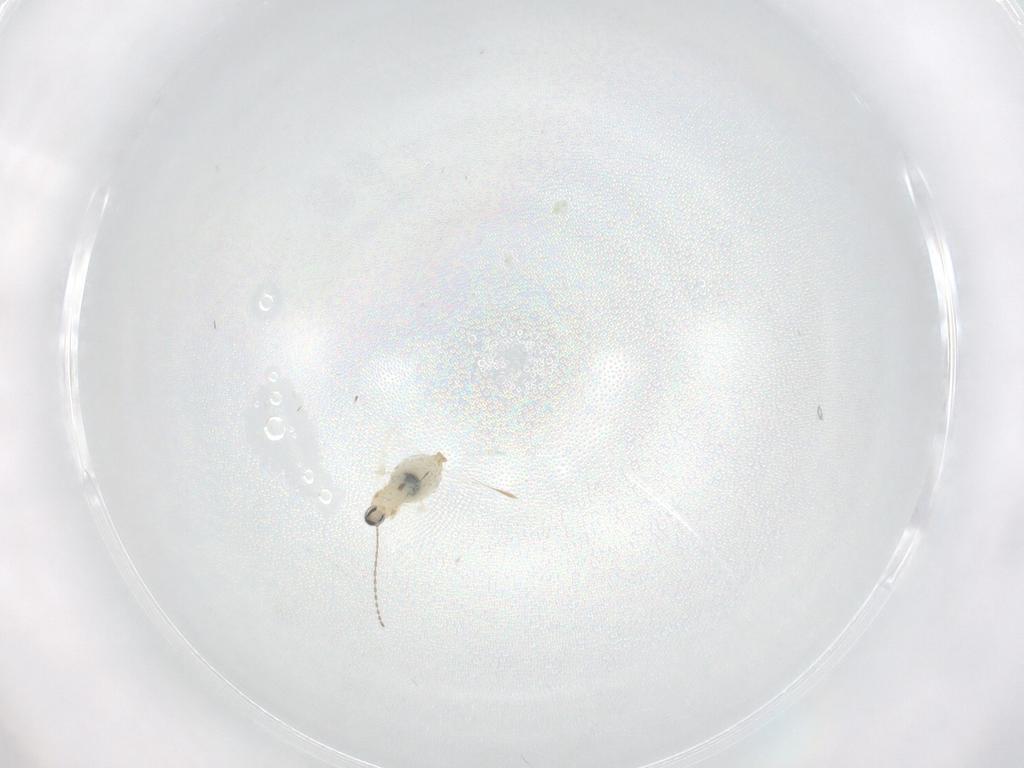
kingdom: Animalia
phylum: Arthropoda
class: Insecta
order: Diptera
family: Cecidomyiidae
